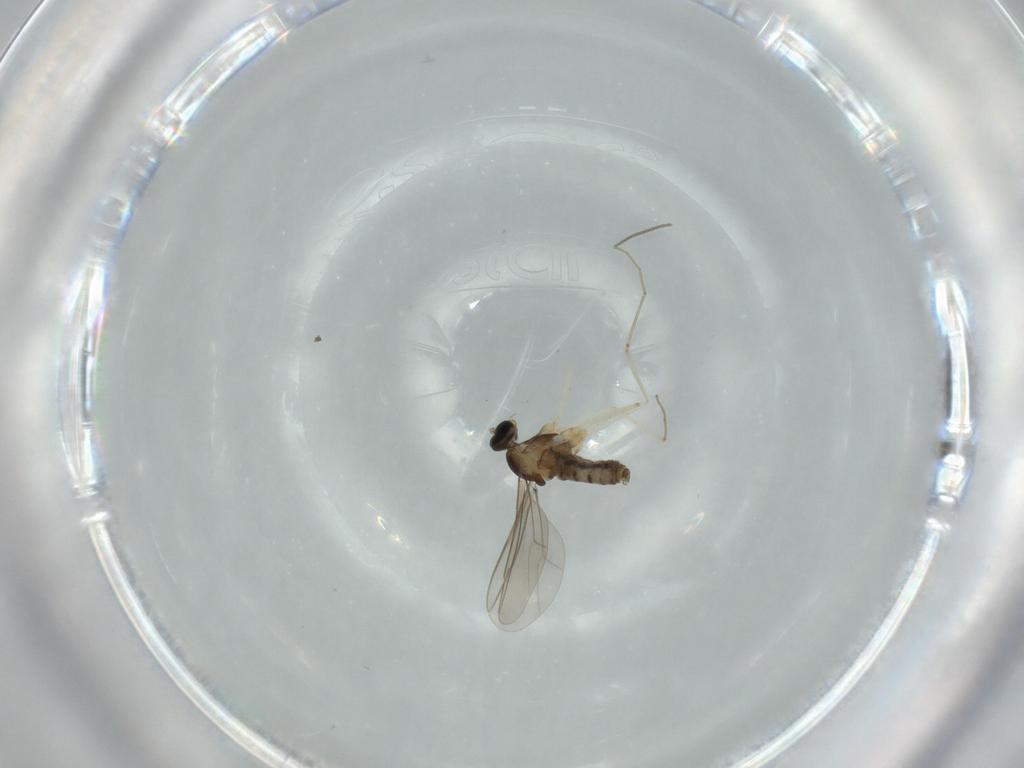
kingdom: Animalia
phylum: Arthropoda
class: Insecta
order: Diptera
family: Cecidomyiidae
